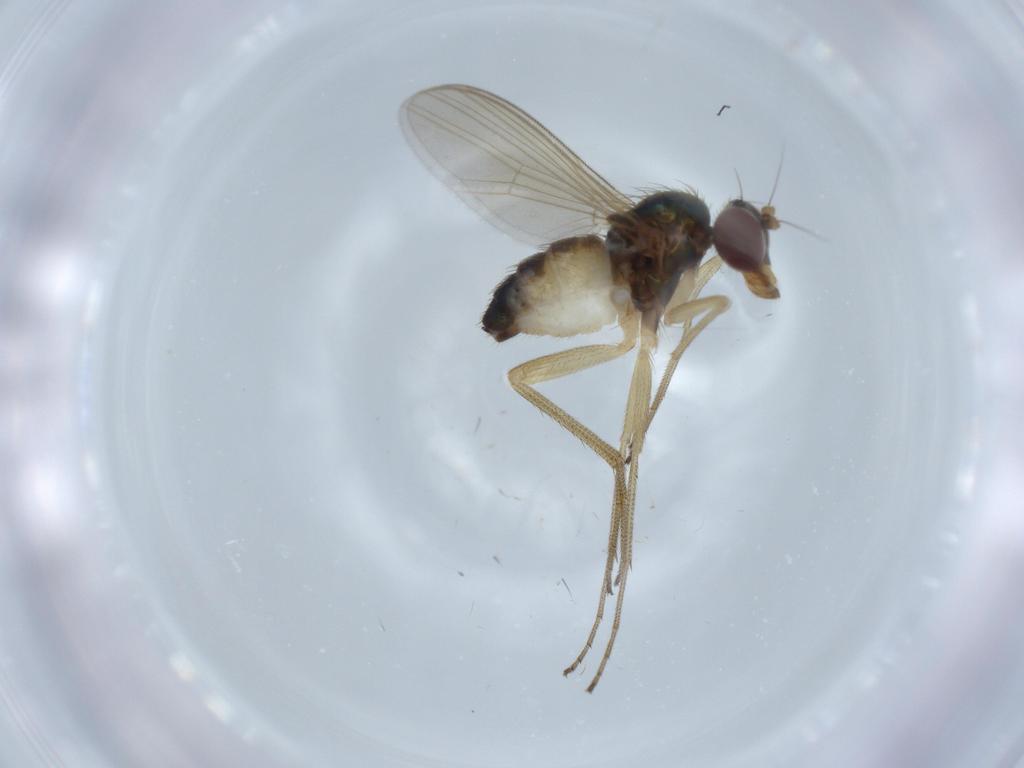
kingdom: Animalia
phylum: Arthropoda
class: Insecta
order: Diptera
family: Dolichopodidae
